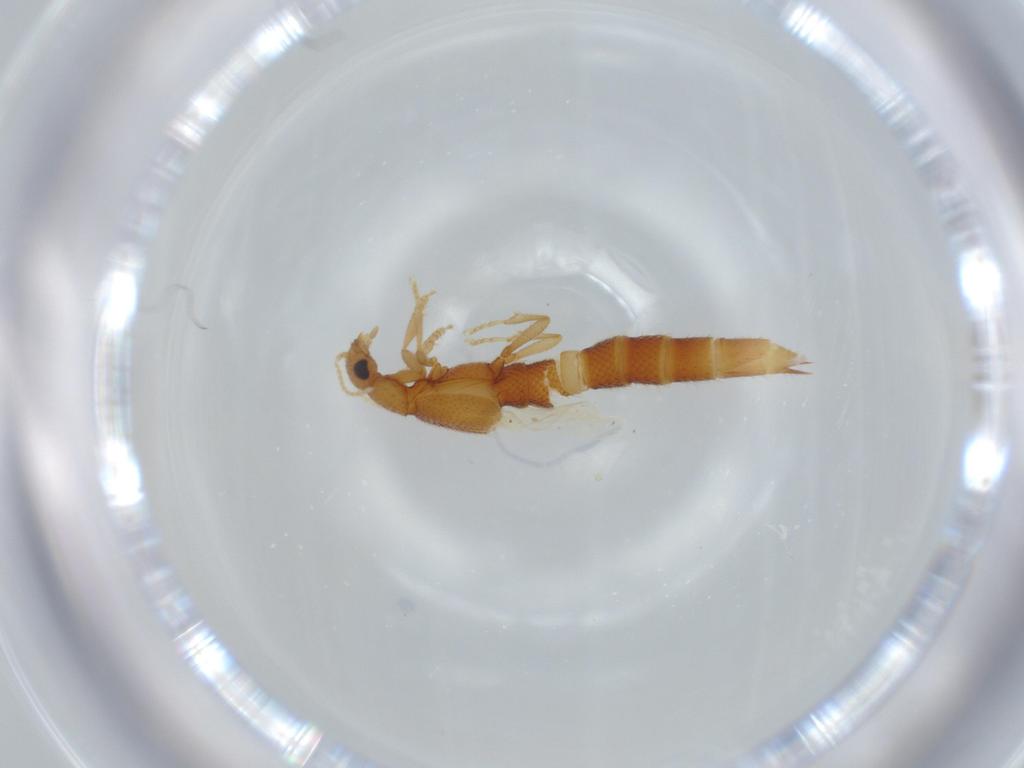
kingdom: Animalia
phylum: Arthropoda
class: Insecta
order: Coleoptera
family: Staphylinidae
